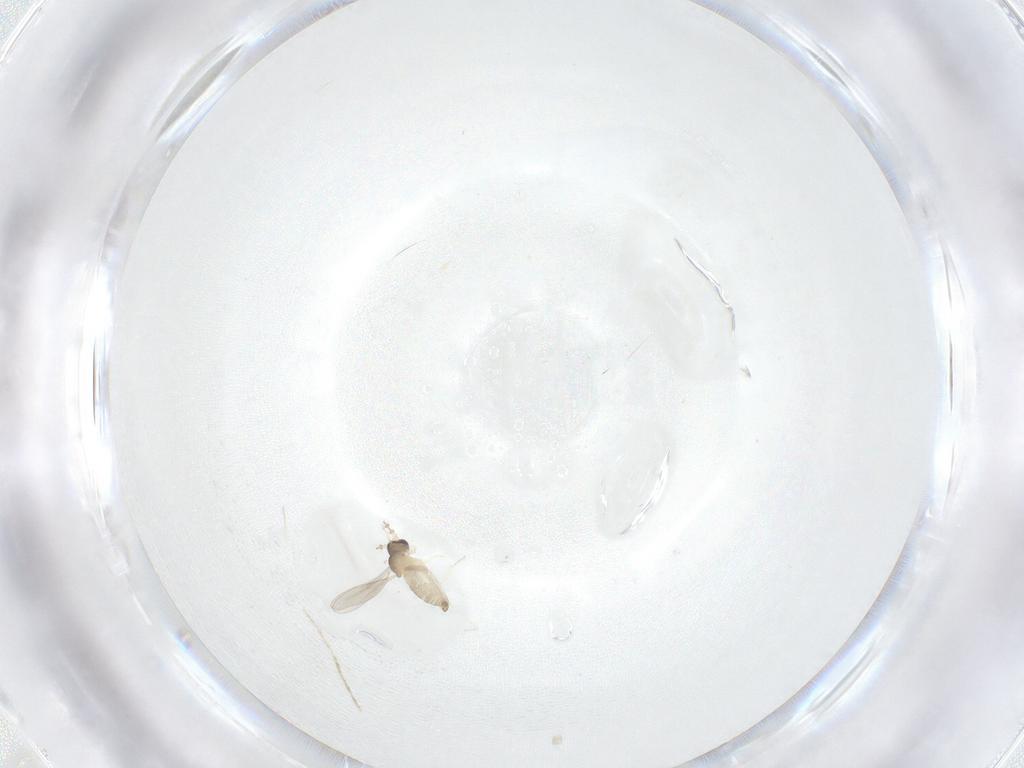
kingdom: Animalia
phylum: Arthropoda
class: Insecta
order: Diptera
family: Cecidomyiidae
